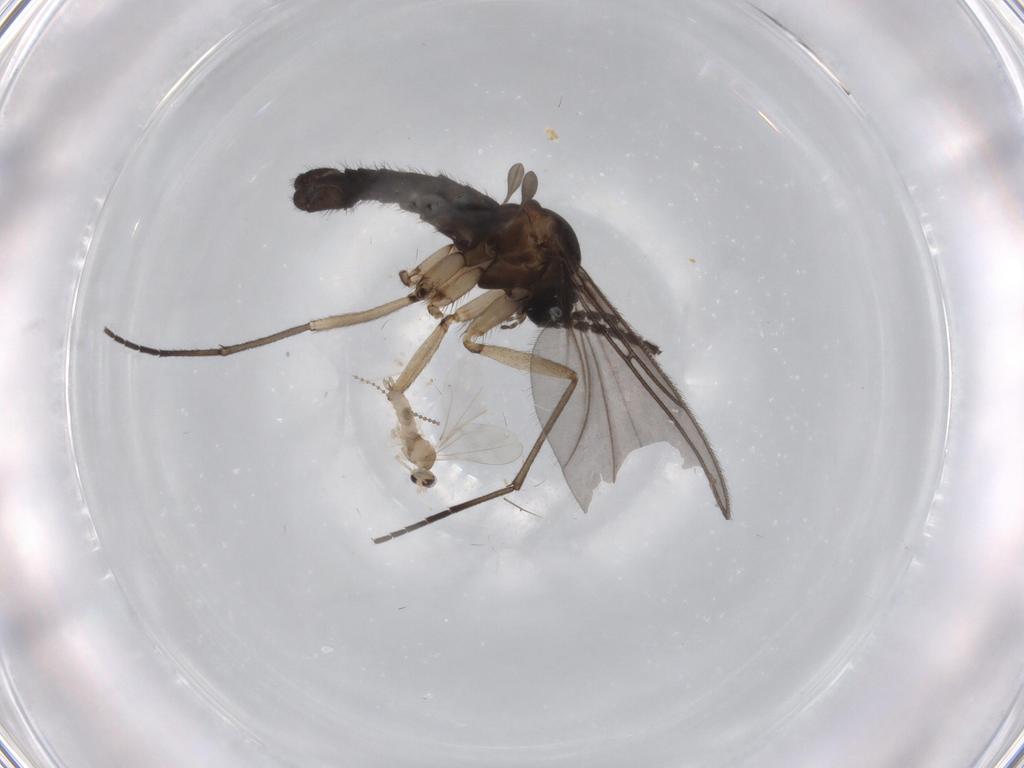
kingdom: Animalia
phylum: Arthropoda
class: Insecta
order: Diptera
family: Sciaridae
